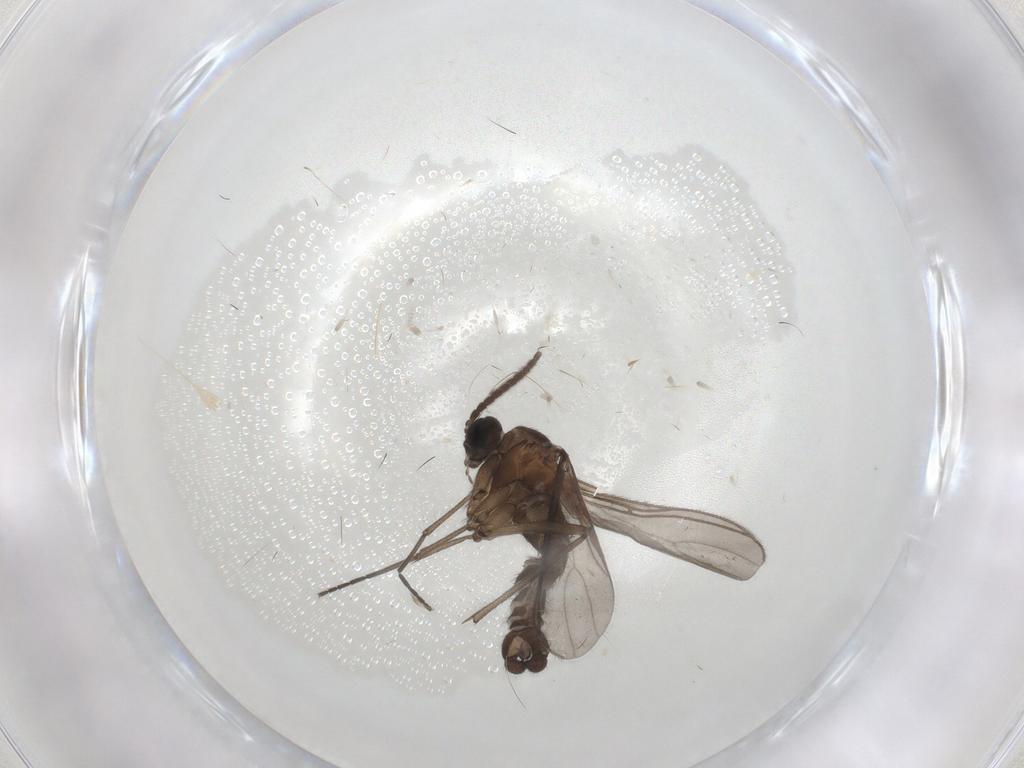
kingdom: Animalia
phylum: Arthropoda
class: Insecta
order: Diptera
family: Sciaridae
